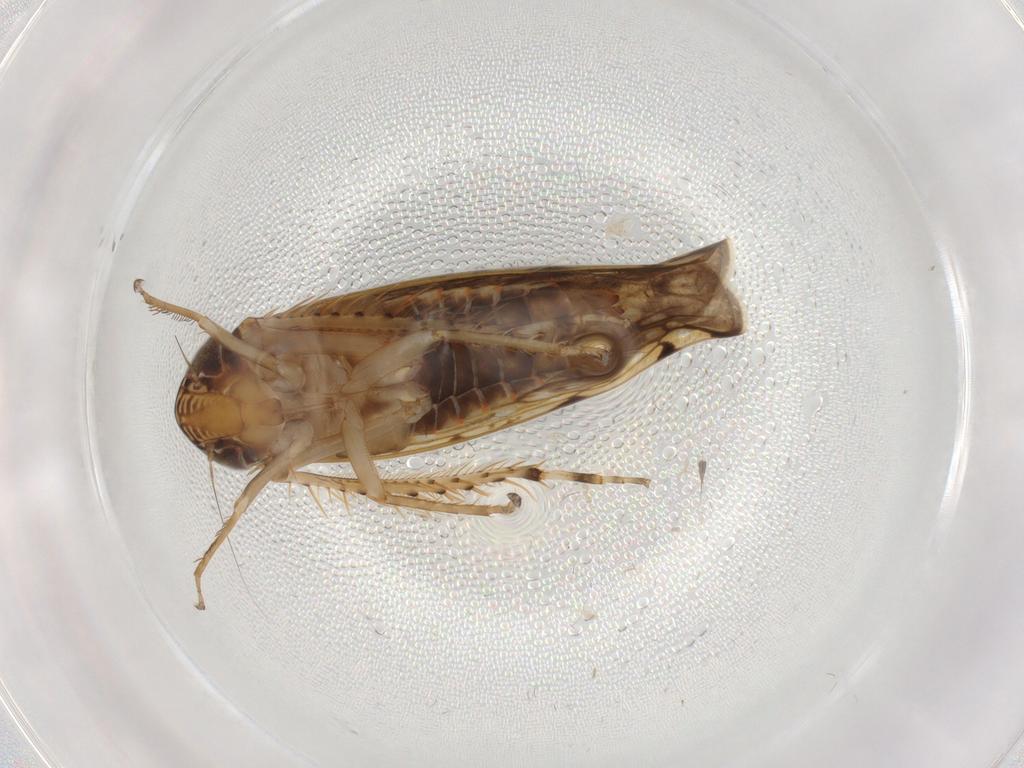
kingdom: Animalia
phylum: Arthropoda
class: Insecta
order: Hemiptera
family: Cicadellidae
